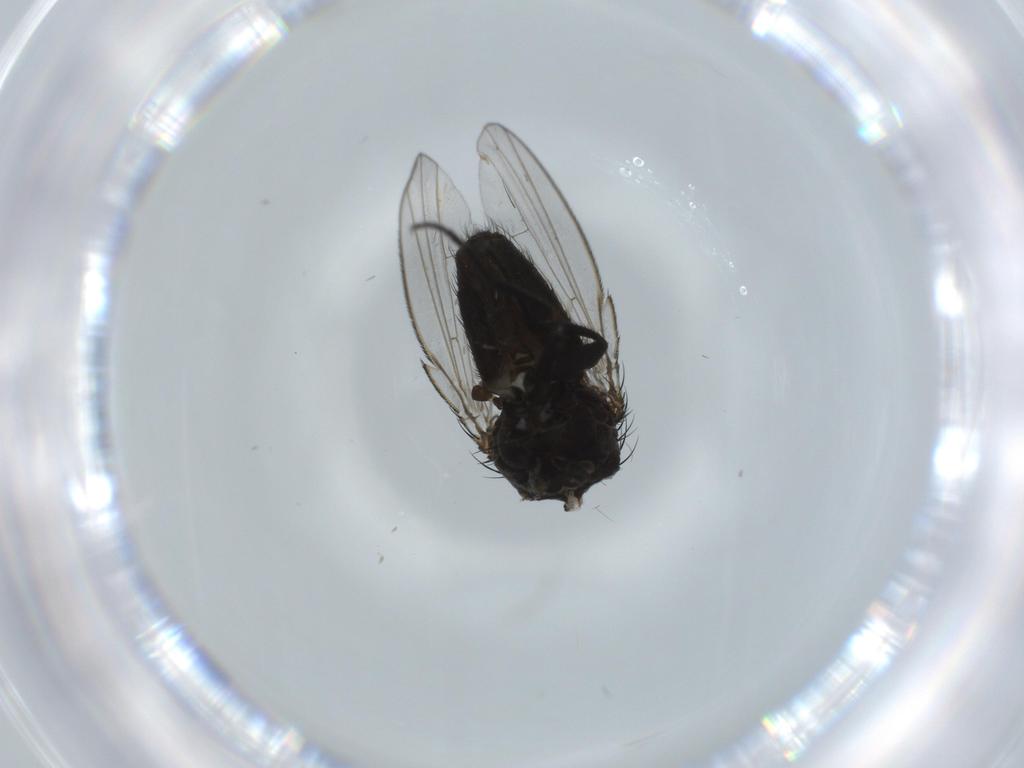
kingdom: Animalia
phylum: Arthropoda
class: Insecta
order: Diptera
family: Milichiidae
